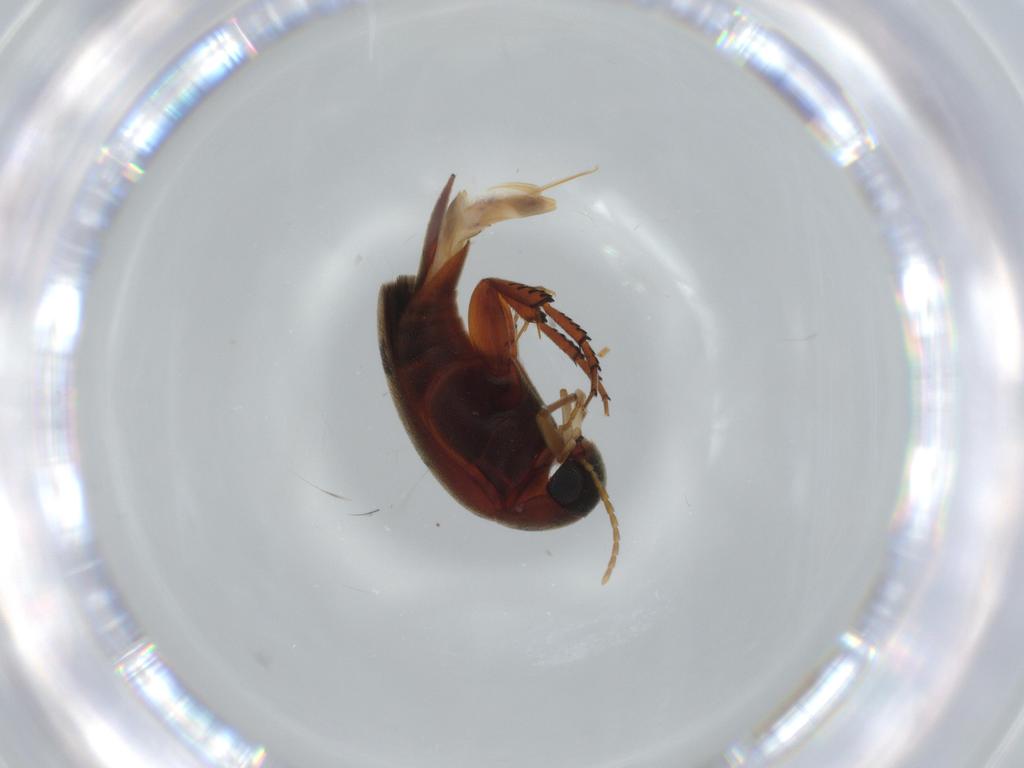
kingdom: Animalia
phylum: Arthropoda
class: Insecta
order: Coleoptera
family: Mordellidae
